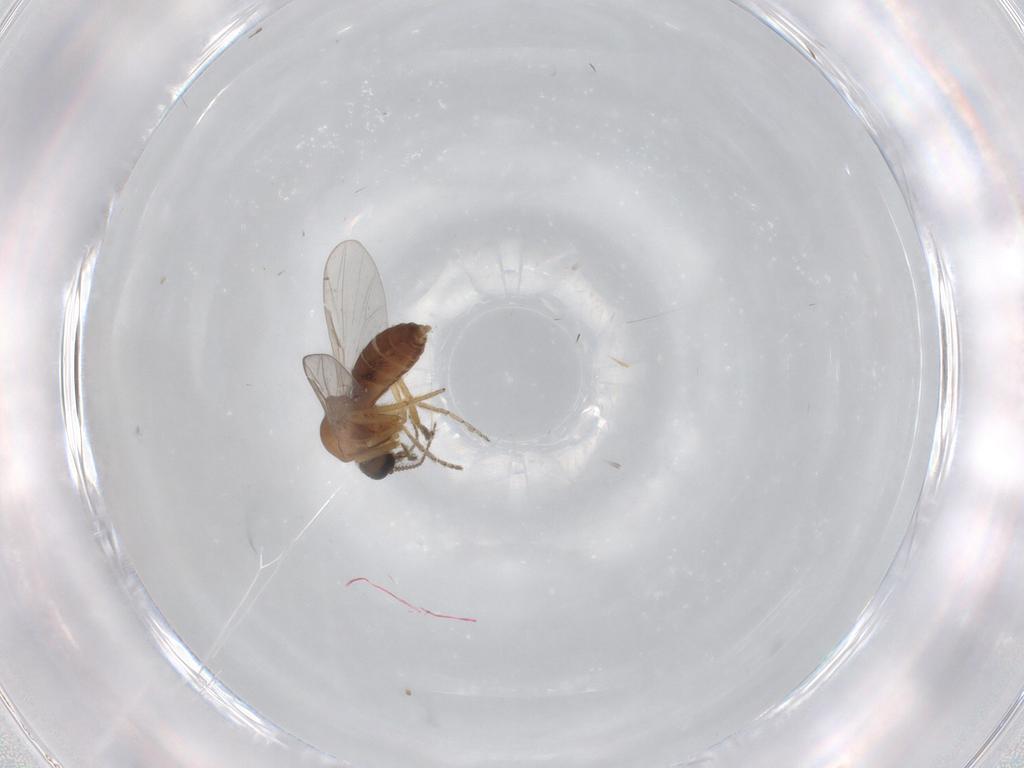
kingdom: Animalia
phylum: Arthropoda
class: Insecta
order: Diptera
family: Ceratopogonidae
